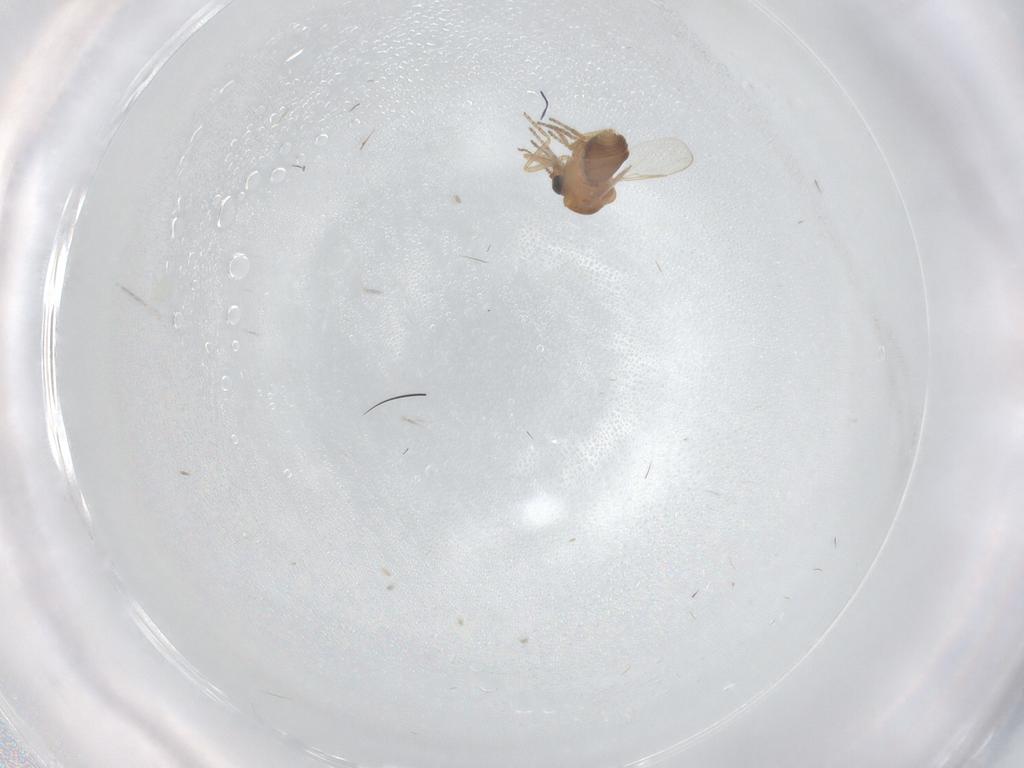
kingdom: Animalia
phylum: Arthropoda
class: Insecta
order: Diptera
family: Ceratopogonidae
